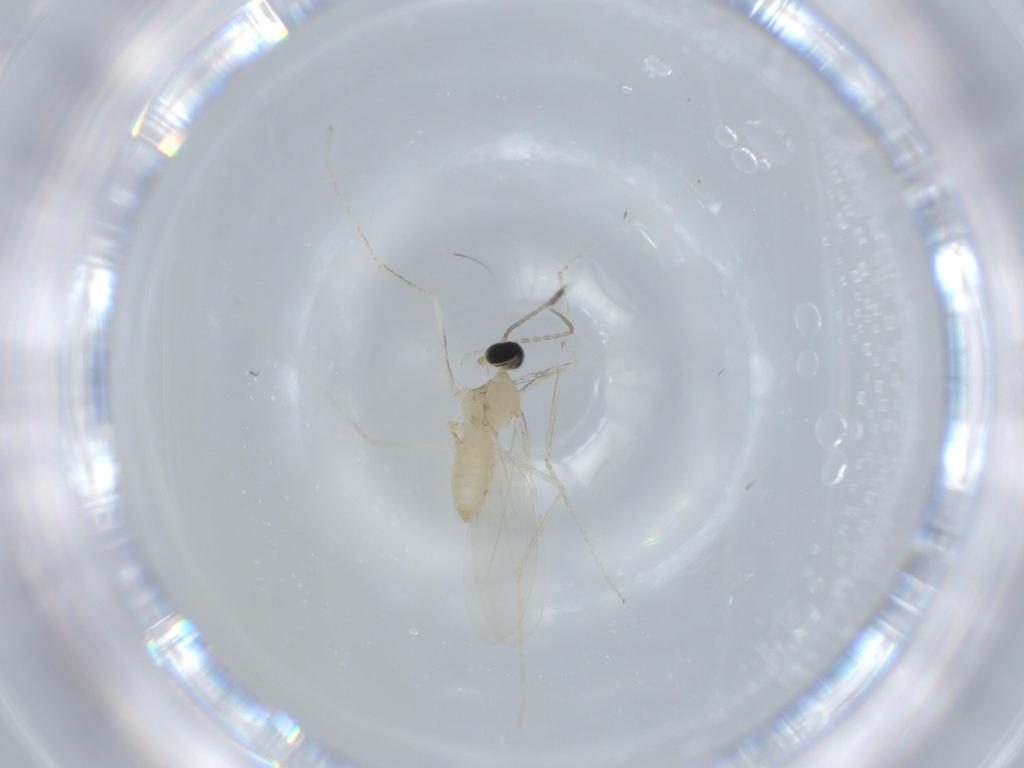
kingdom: Animalia
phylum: Arthropoda
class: Insecta
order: Diptera
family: Cecidomyiidae
